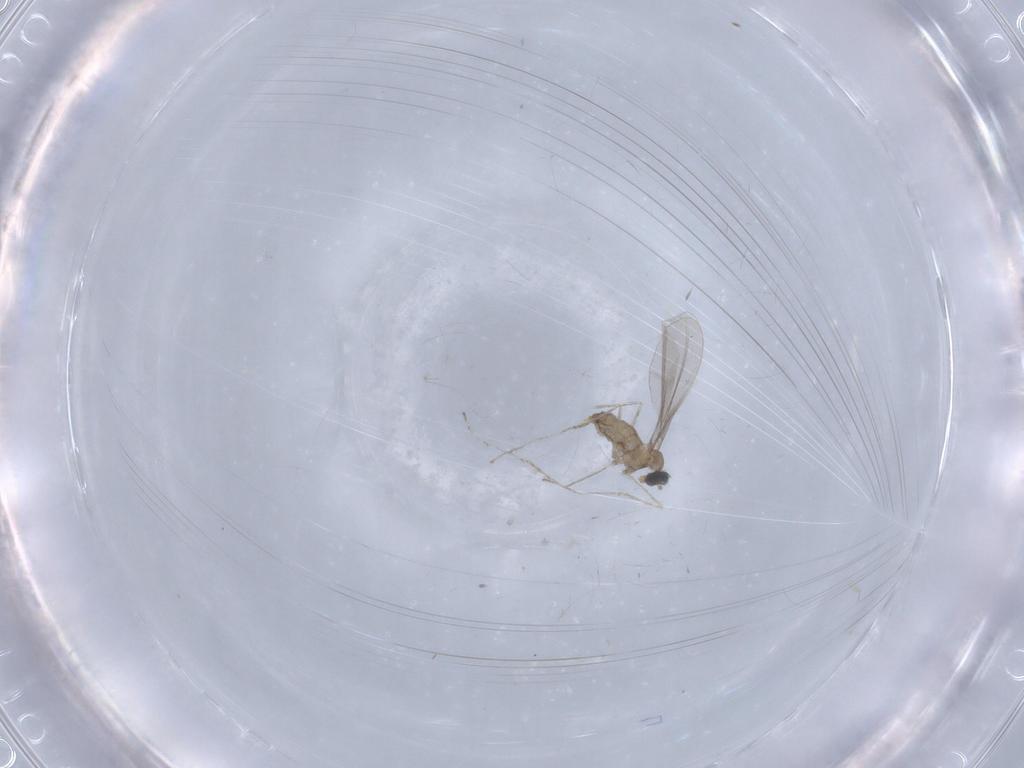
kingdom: Animalia
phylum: Arthropoda
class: Insecta
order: Diptera
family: Cecidomyiidae
